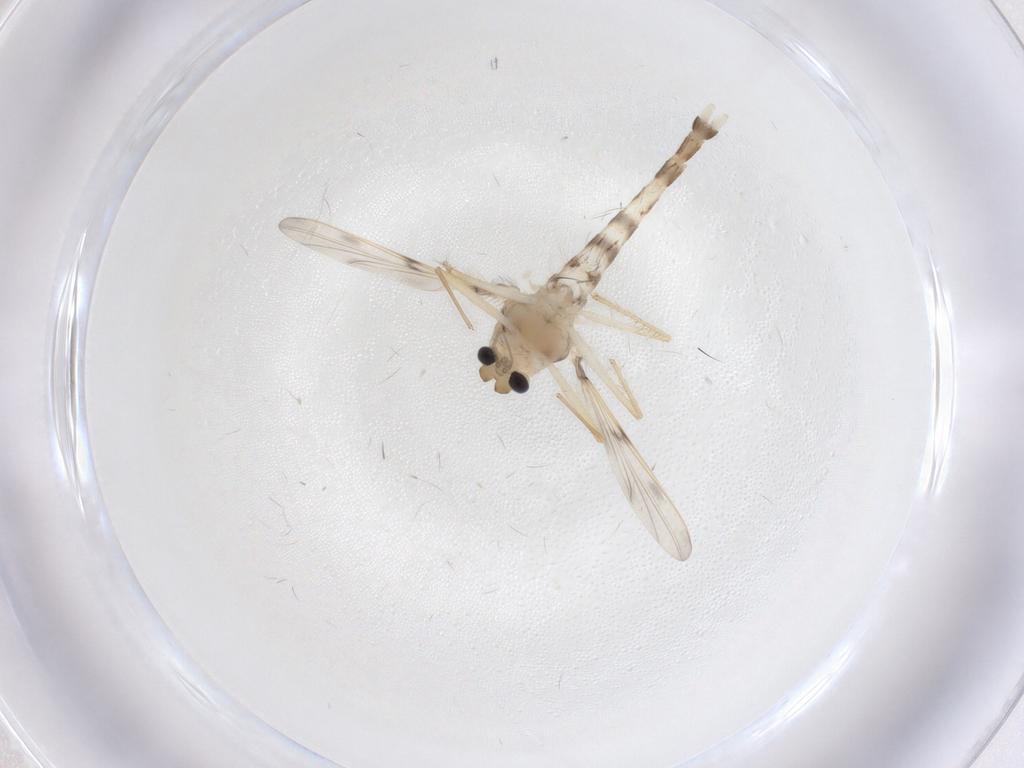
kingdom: Animalia
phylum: Arthropoda
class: Insecta
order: Diptera
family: Chironomidae
